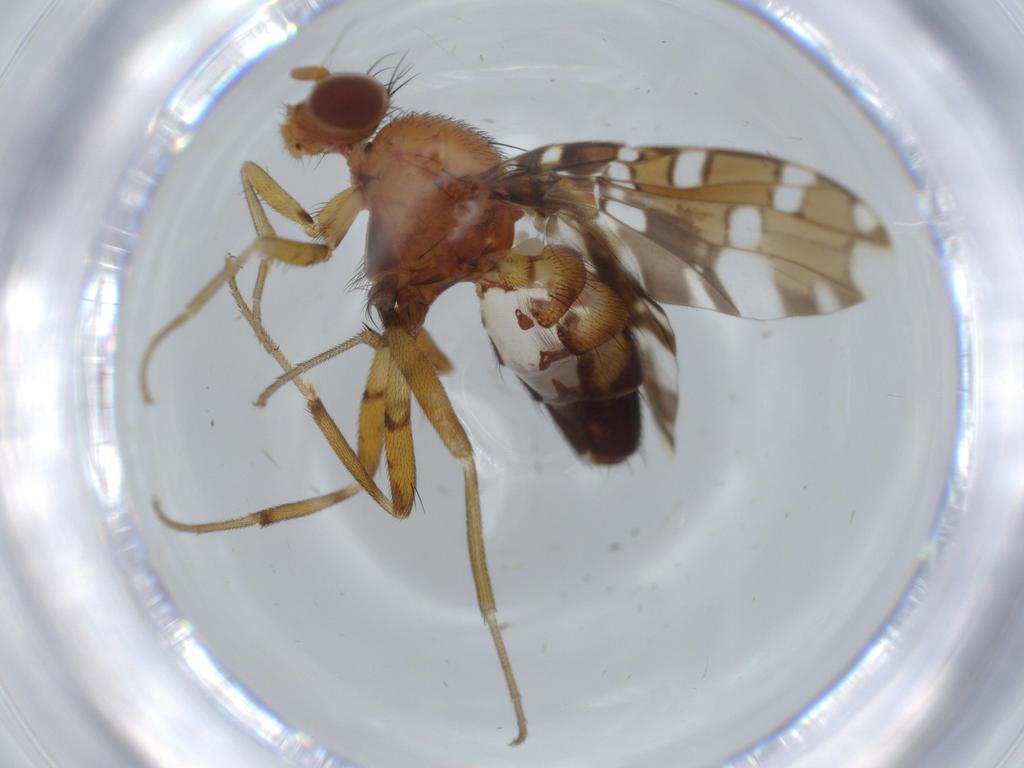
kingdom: Animalia
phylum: Arthropoda
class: Insecta
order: Diptera
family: Ulidiidae
